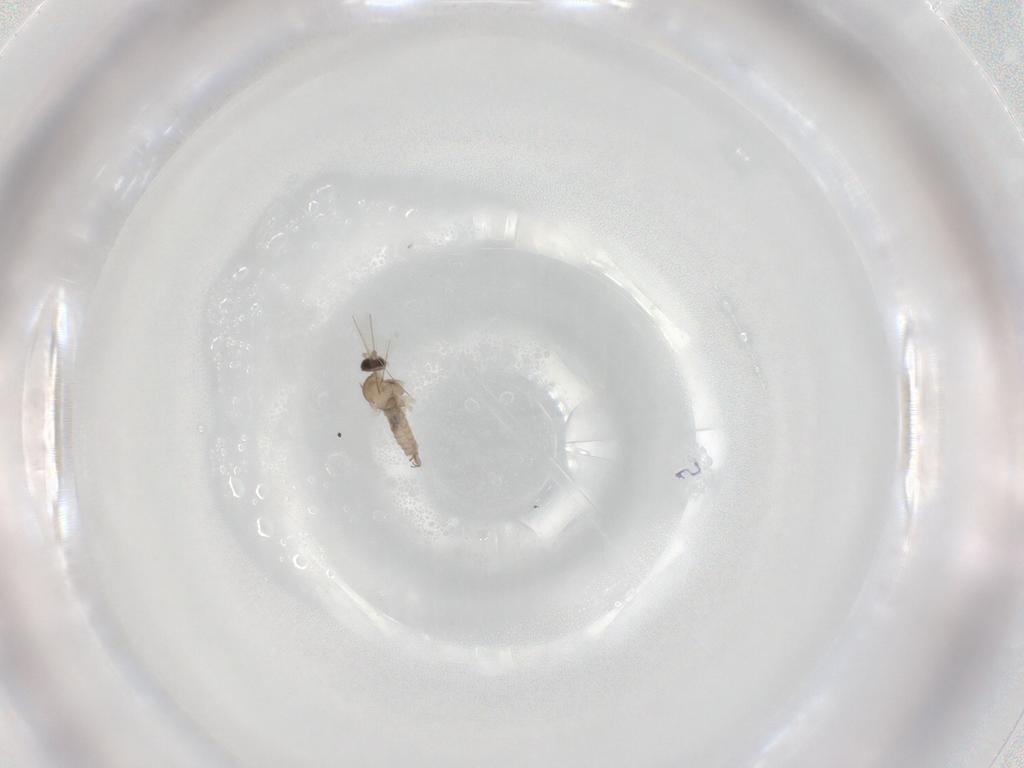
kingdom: Animalia
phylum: Arthropoda
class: Insecta
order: Diptera
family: Cecidomyiidae
